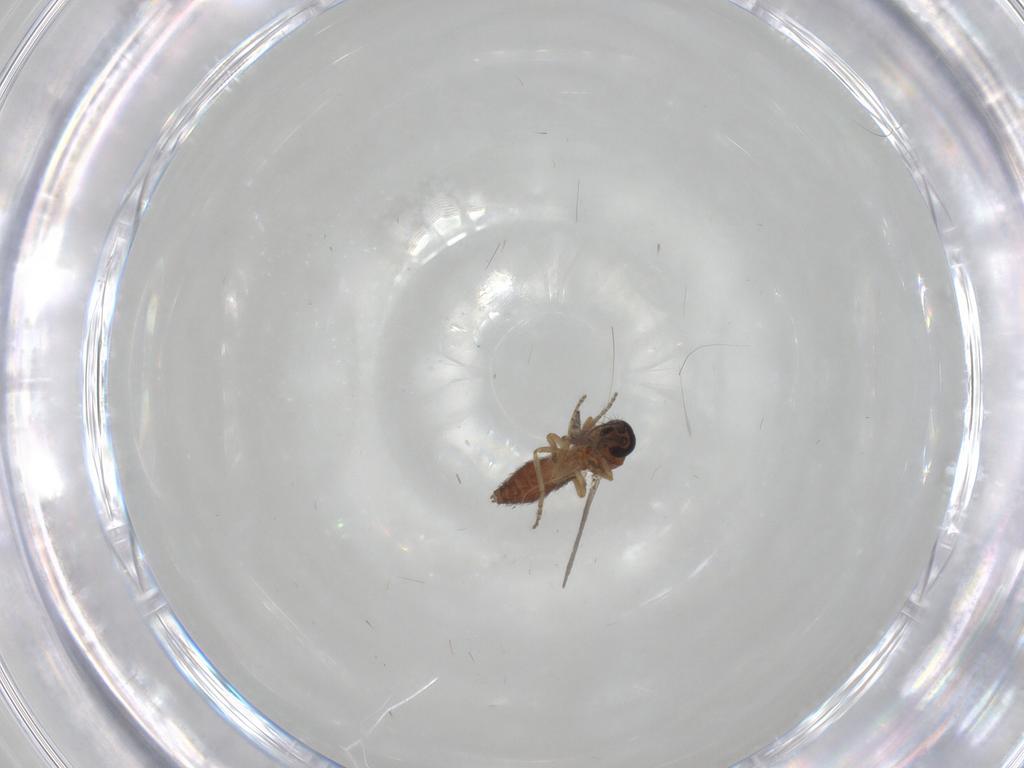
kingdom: Animalia
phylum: Arthropoda
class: Insecta
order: Diptera
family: Ceratopogonidae
